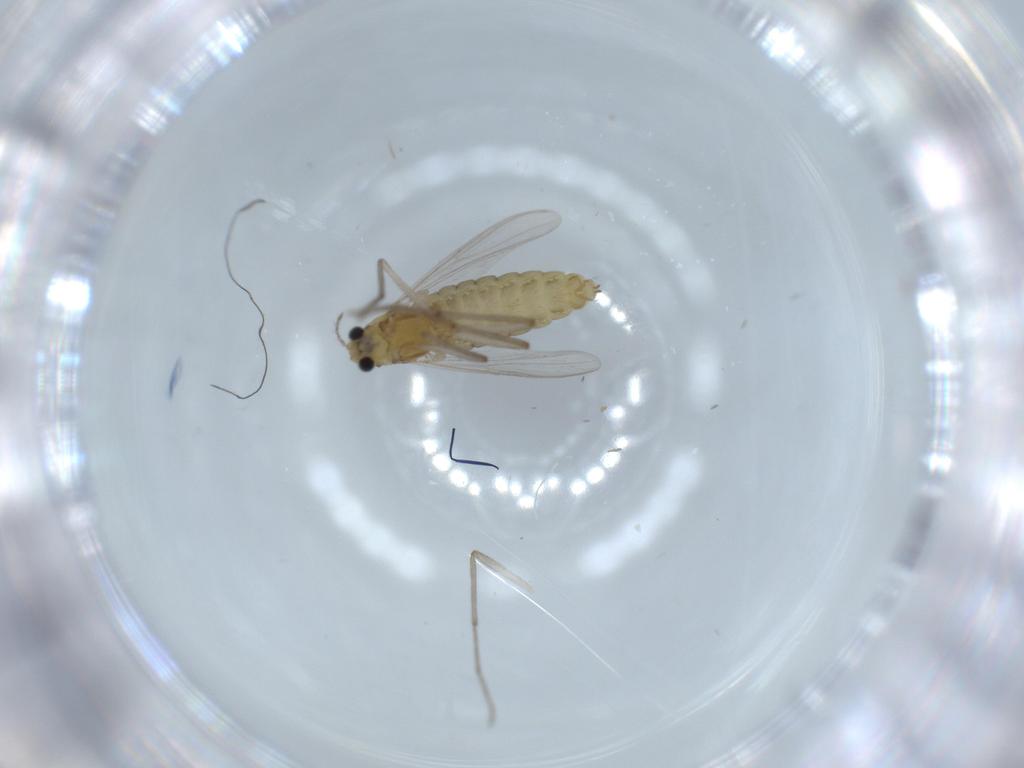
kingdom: Animalia
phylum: Arthropoda
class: Insecta
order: Diptera
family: Chironomidae
